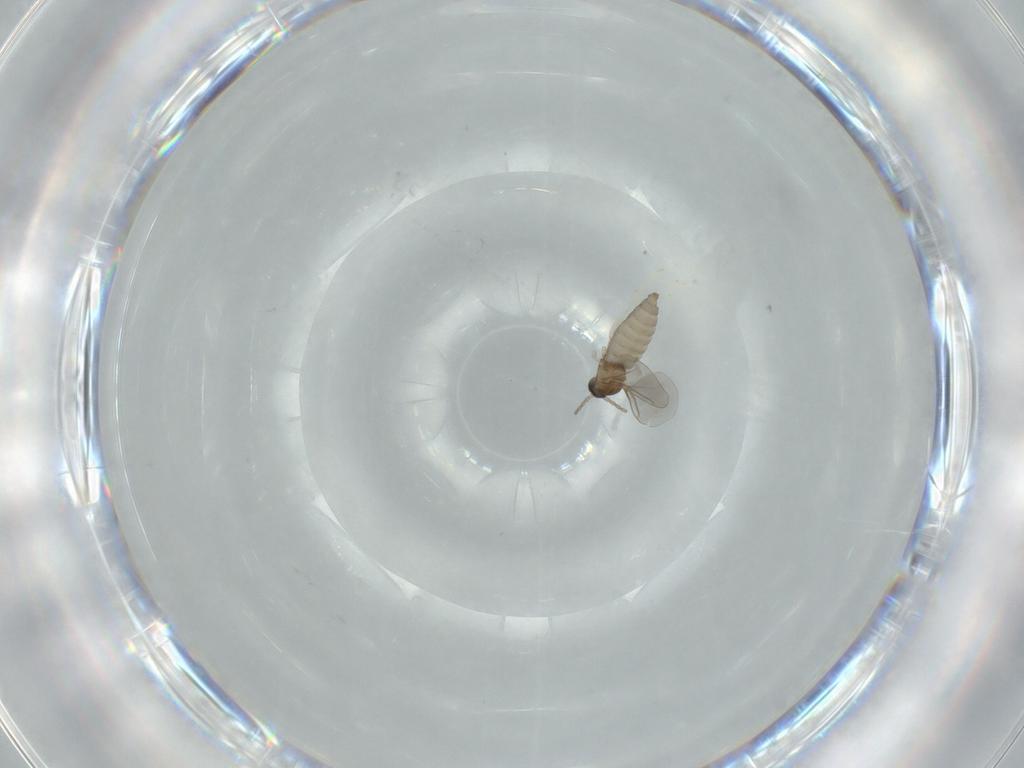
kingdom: Animalia
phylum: Arthropoda
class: Insecta
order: Diptera
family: Cecidomyiidae
